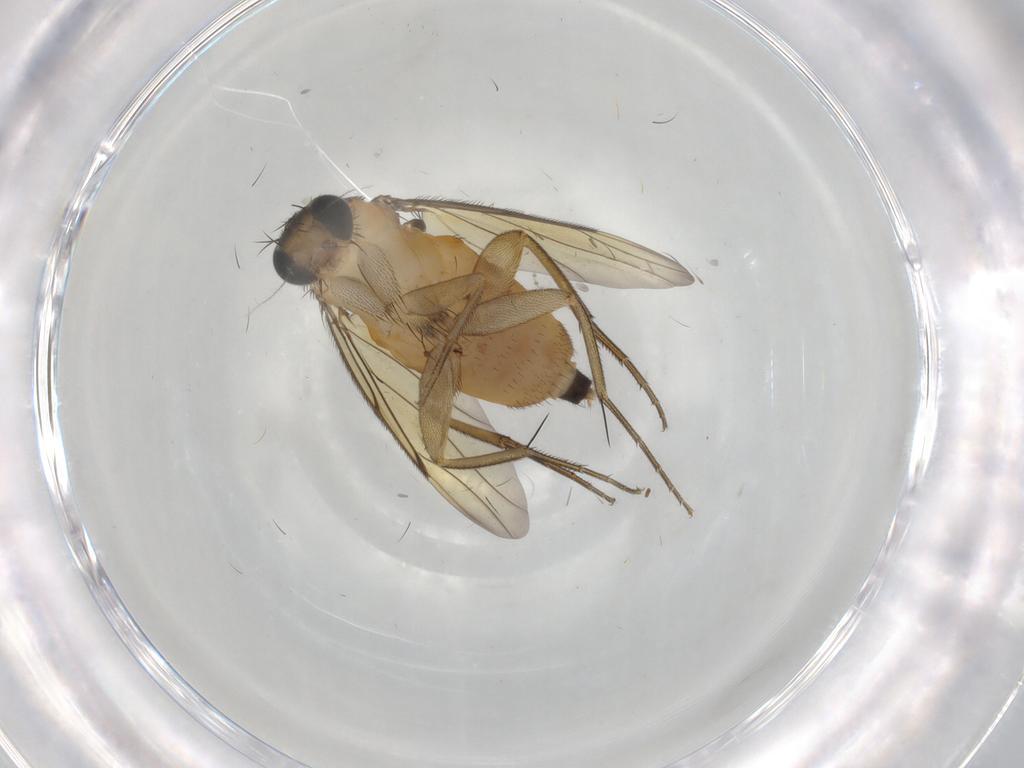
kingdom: Animalia
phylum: Arthropoda
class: Insecta
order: Diptera
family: Phoridae
